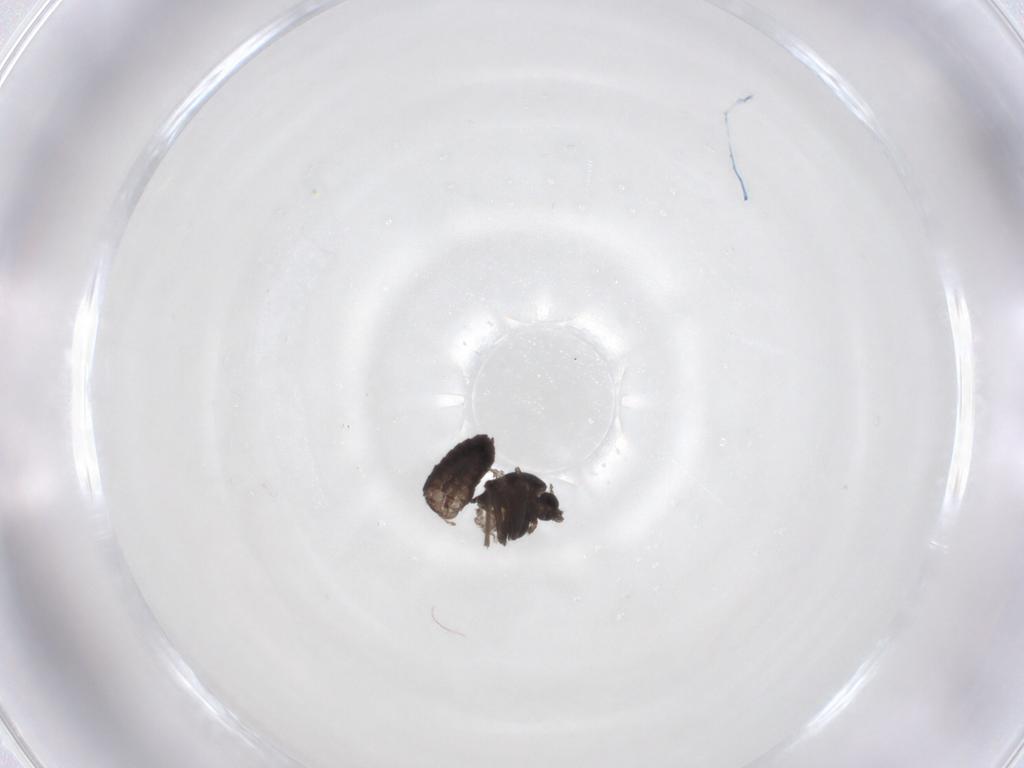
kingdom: Animalia
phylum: Arthropoda
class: Insecta
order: Diptera
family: Chironomidae
